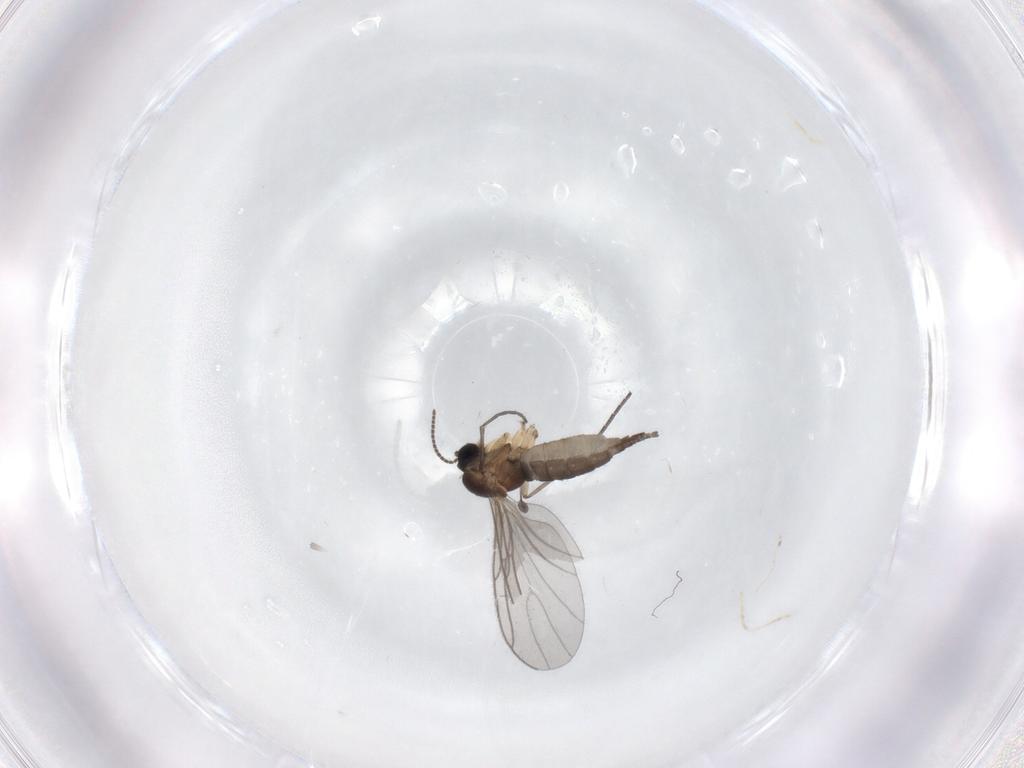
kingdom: Animalia
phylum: Arthropoda
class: Insecta
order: Diptera
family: Sciaridae
